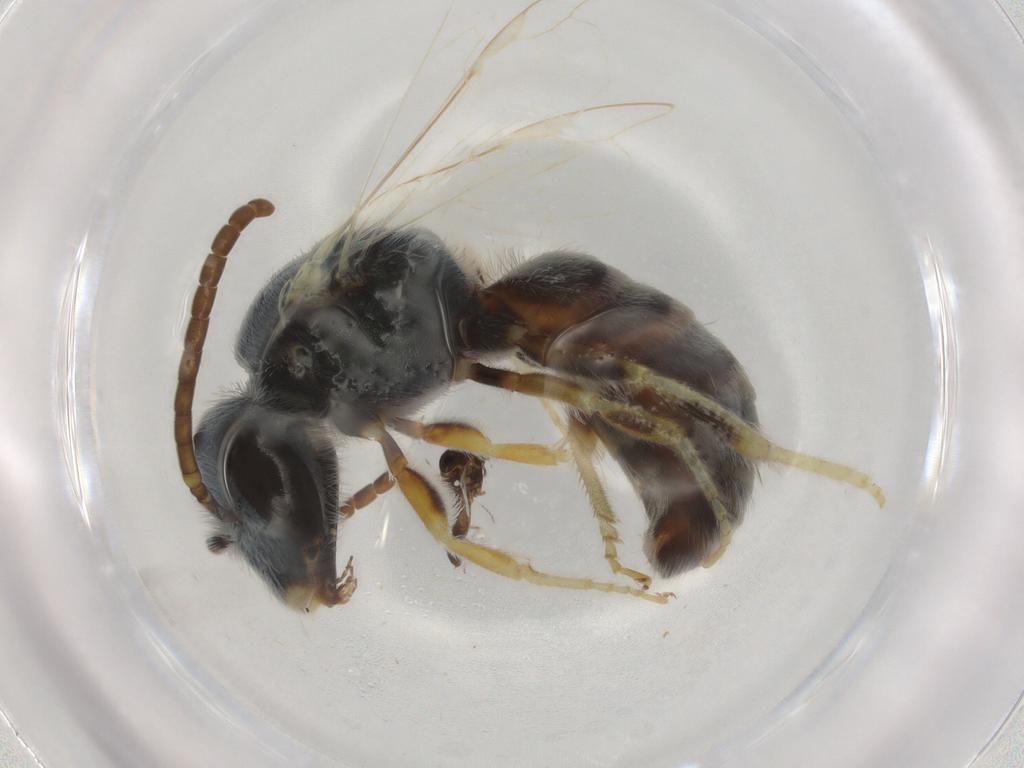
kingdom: Animalia
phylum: Arthropoda
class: Insecta
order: Hymenoptera
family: Halictidae
